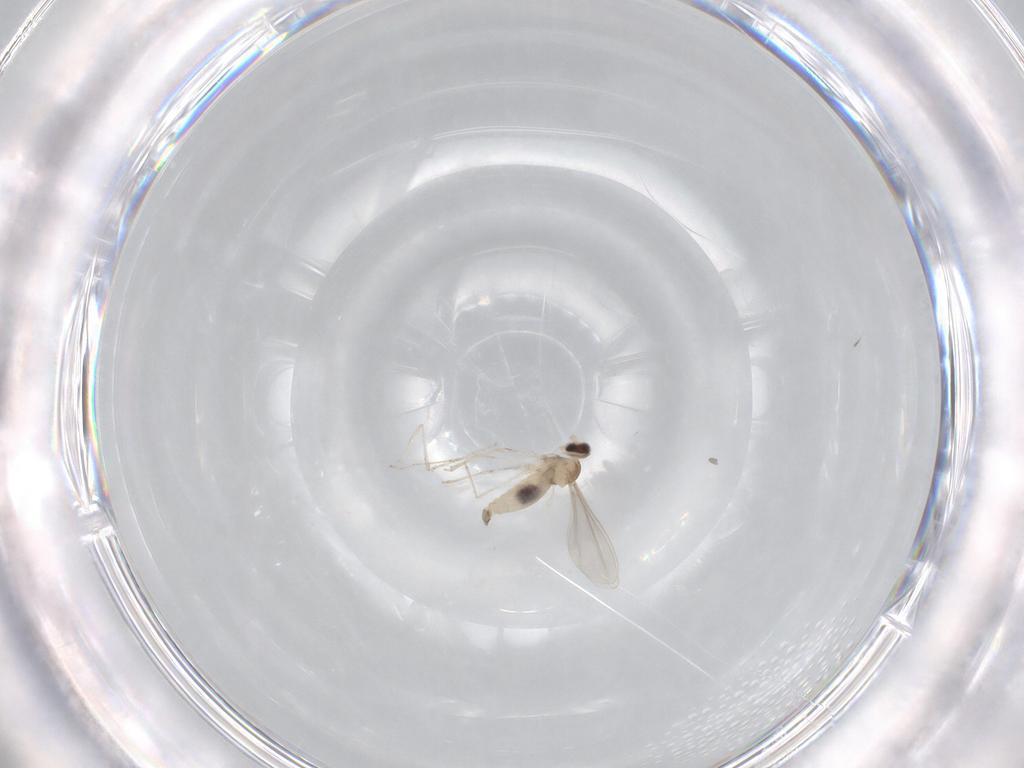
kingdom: Animalia
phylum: Arthropoda
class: Insecta
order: Diptera
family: Cecidomyiidae
